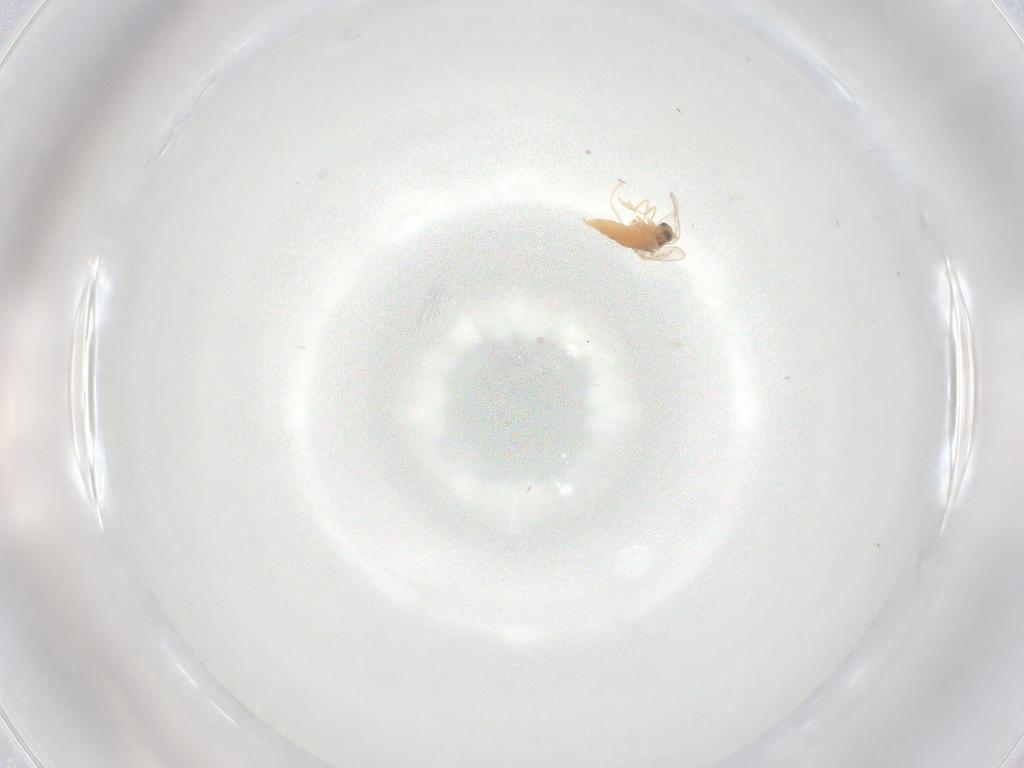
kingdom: Animalia
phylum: Arthropoda
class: Insecta
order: Diptera
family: Cecidomyiidae
